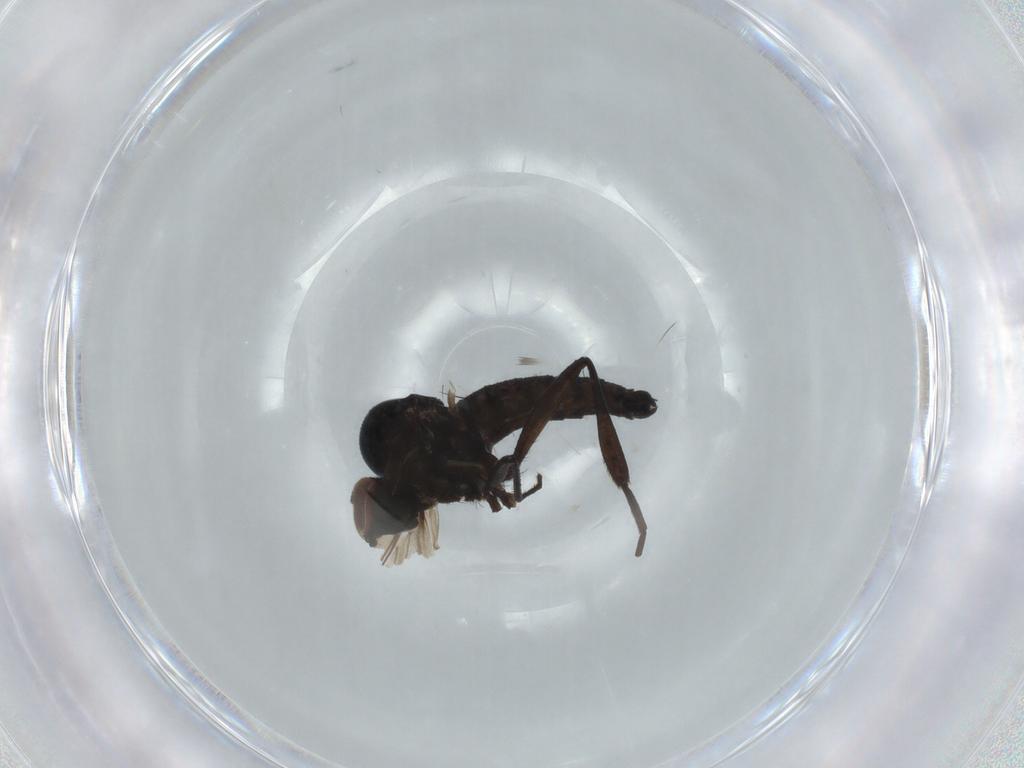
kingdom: Animalia
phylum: Arthropoda
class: Insecta
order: Diptera
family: Hybotidae
